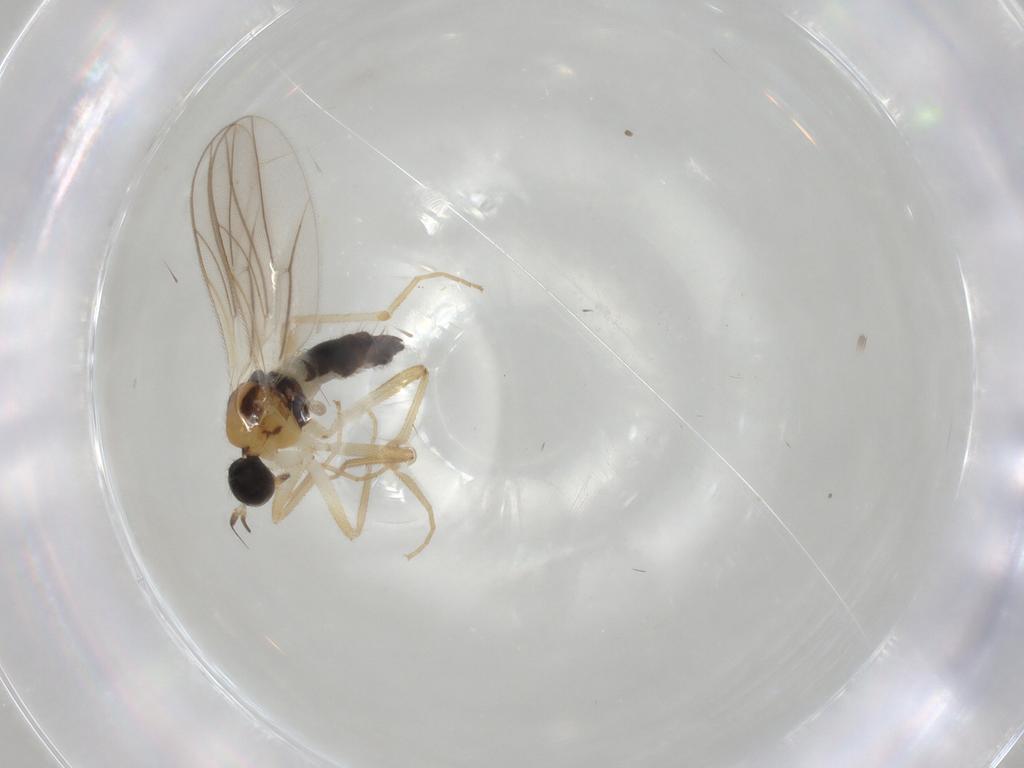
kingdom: Animalia
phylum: Arthropoda
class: Insecta
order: Diptera
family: Hybotidae
